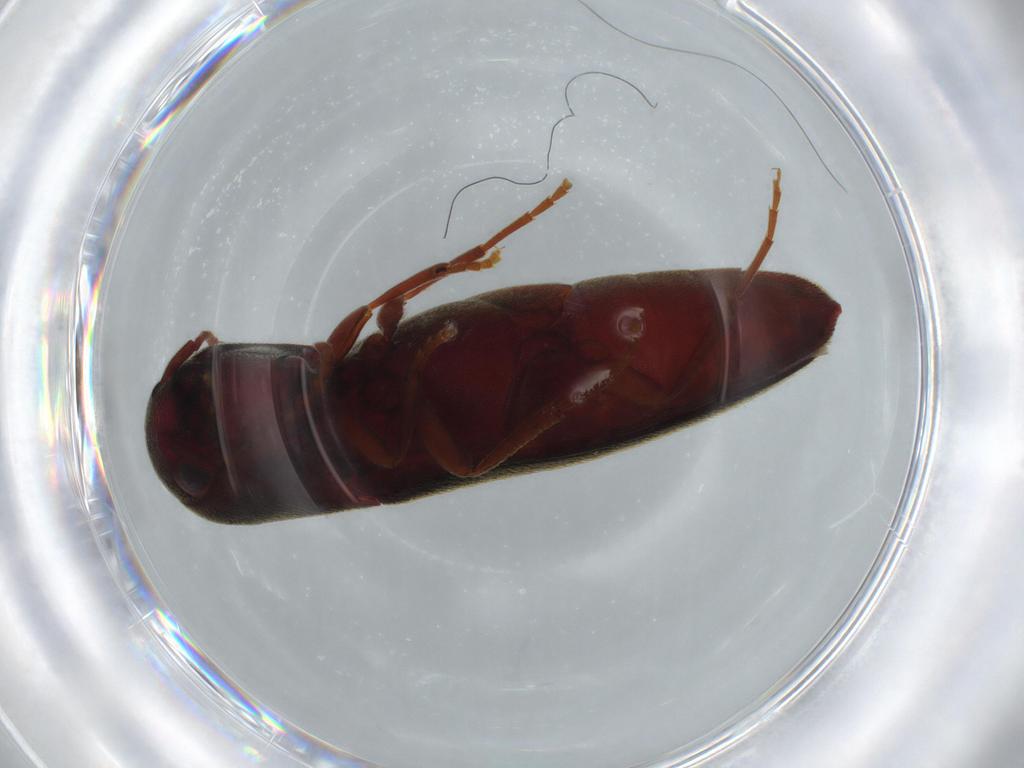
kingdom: Animalia
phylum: Arthropoda
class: Insecta
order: Coleoptera
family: Eucnemidae
